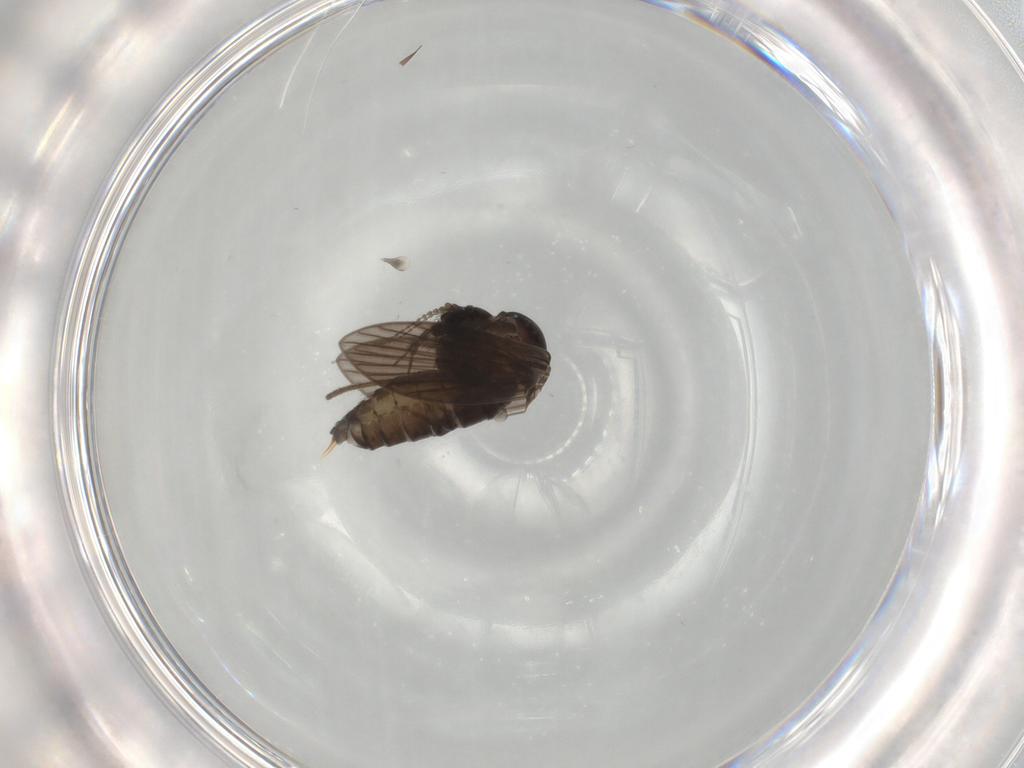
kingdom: Animalia
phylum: Arthropoda
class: Insecta
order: Diptera
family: Psychodidae
